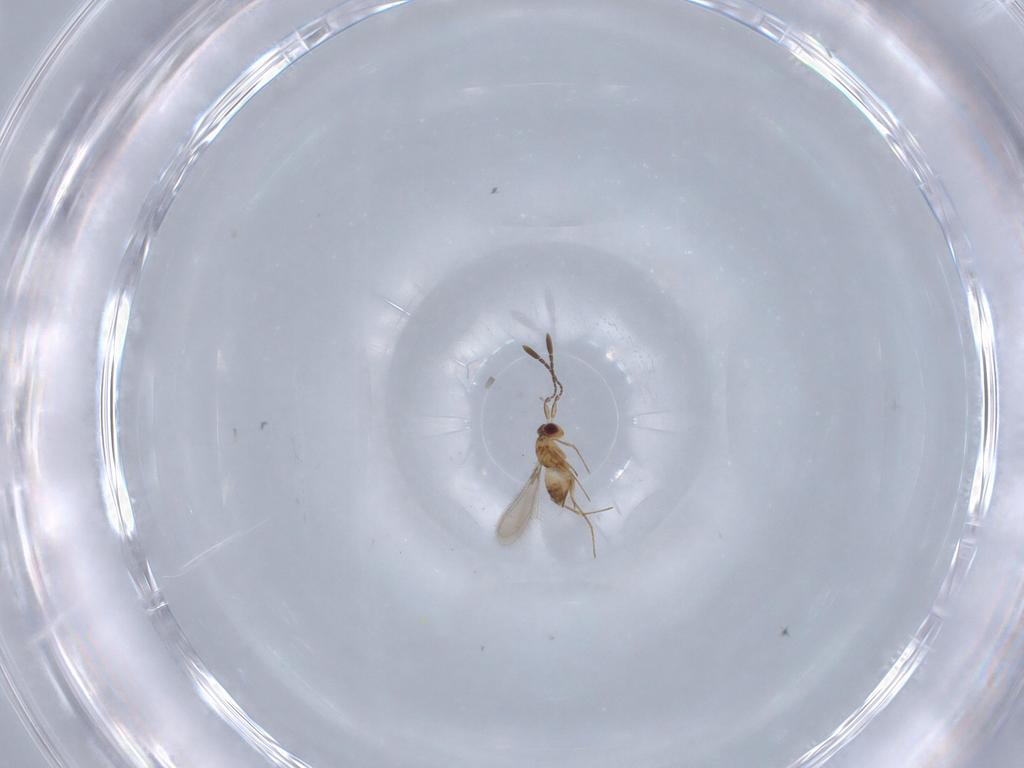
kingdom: Animalia
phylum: Arthropoda
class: Insecta
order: Hymenoptera
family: Mymaridae
